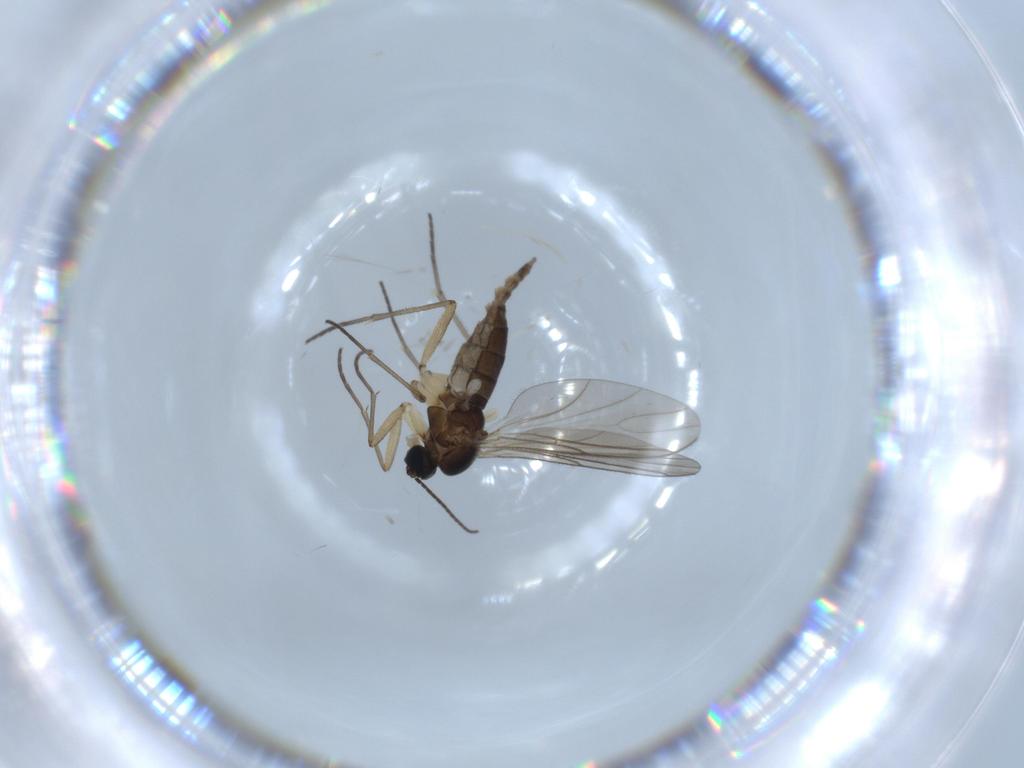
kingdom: Animalia
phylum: Arthropoda
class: Insecta
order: Diptera
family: Sciaridae
